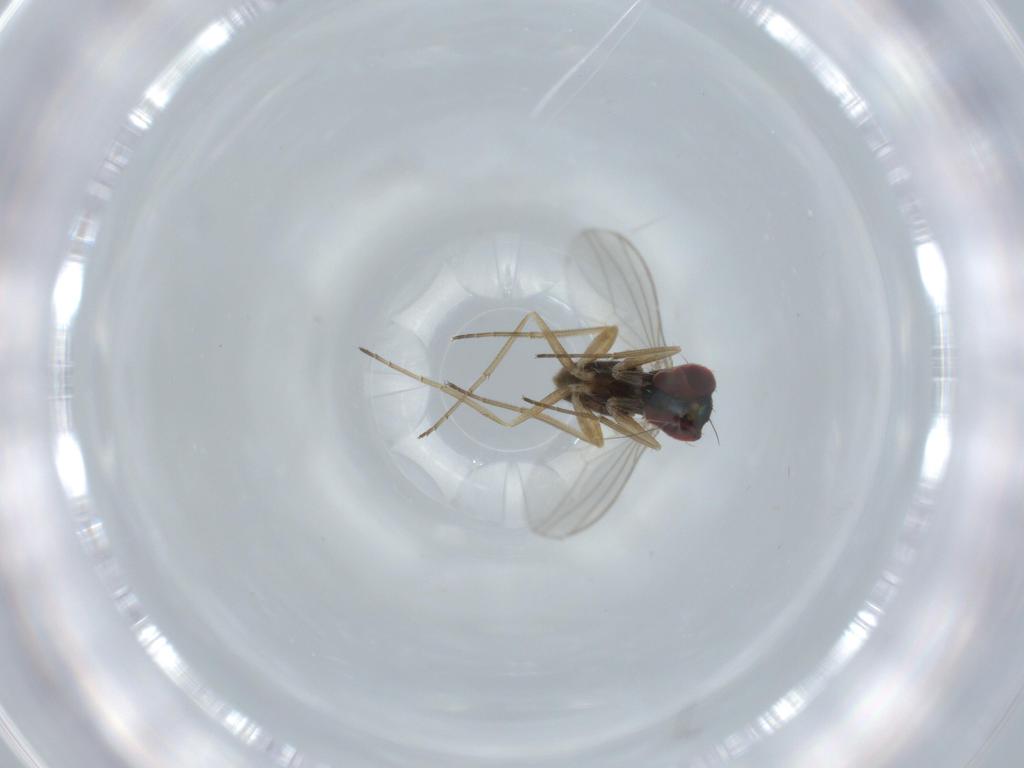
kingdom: Animalia
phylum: Arthropoda
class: Insecta
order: Diptera
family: Dolichopodidae
